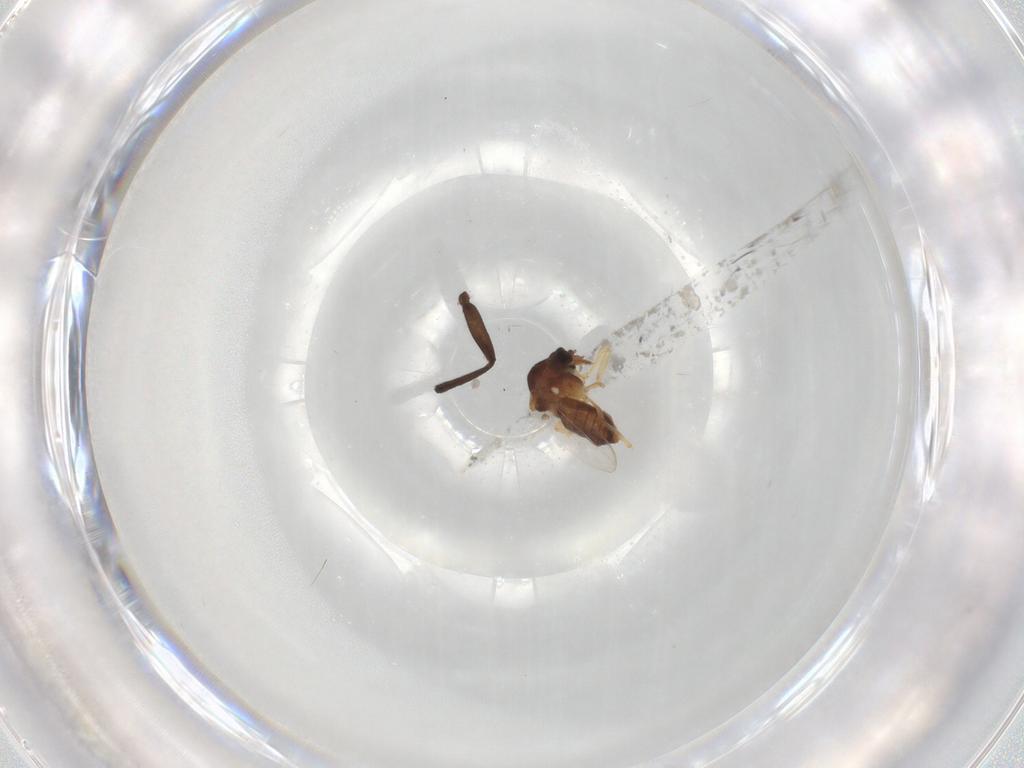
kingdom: Animalia
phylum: Arthropoda
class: Insecta
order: Diptera
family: Ceratopogonidae
